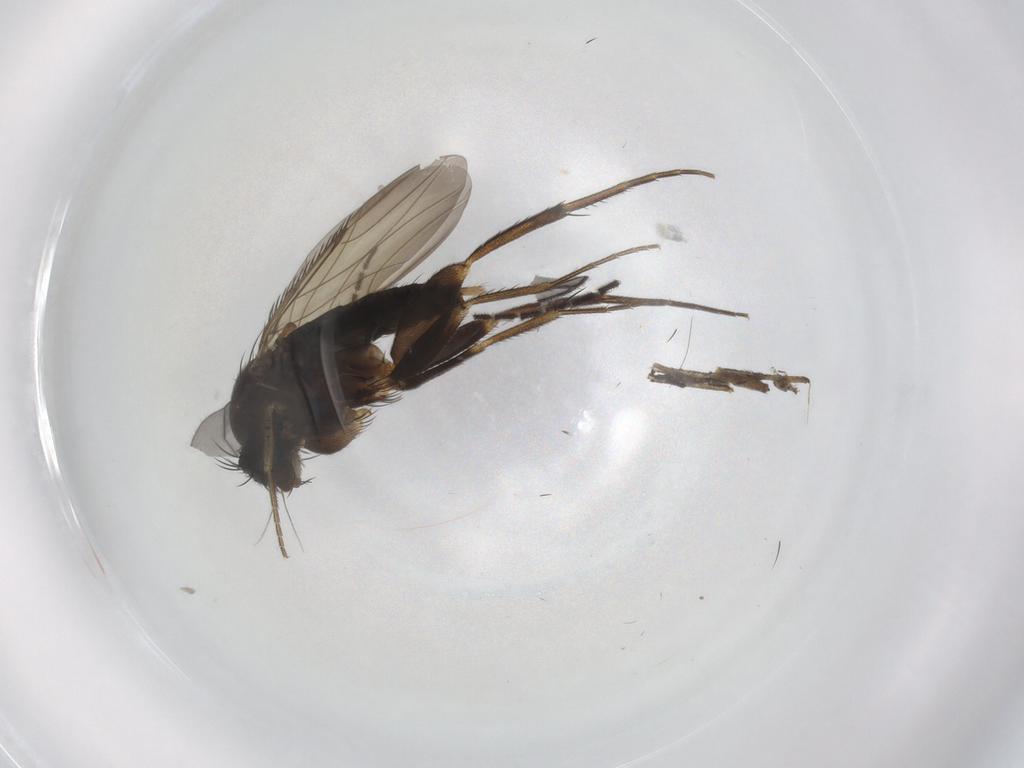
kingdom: Animalia
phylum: Arthropoda
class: Insecta
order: Diptera
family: Phoridae
